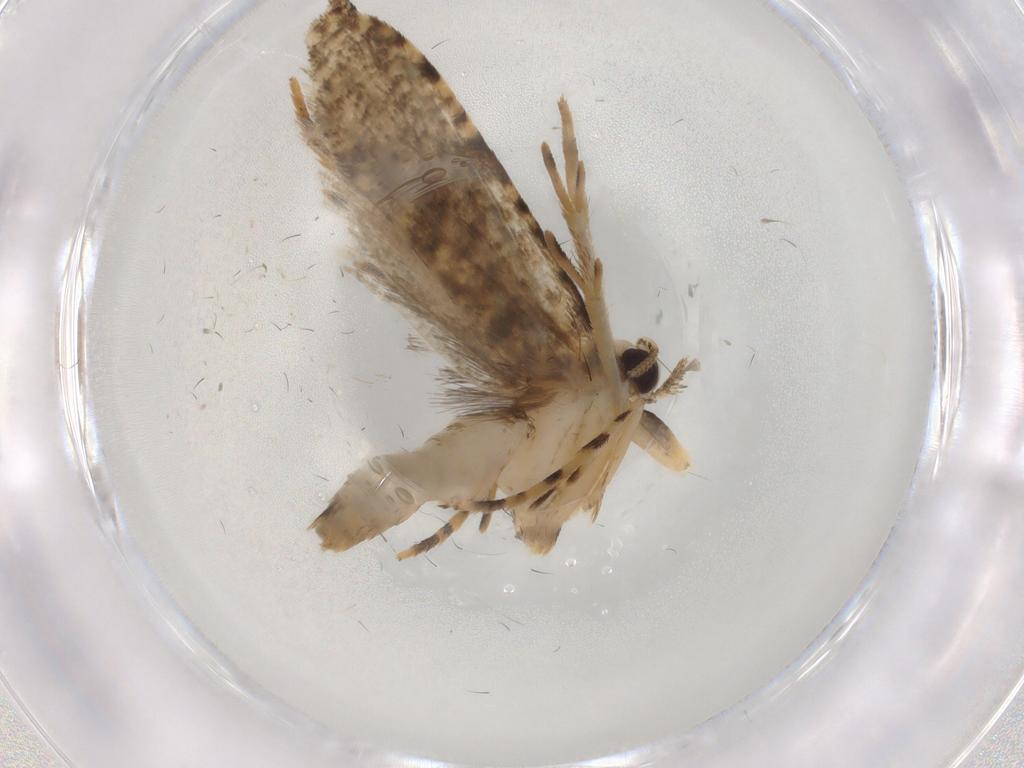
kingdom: Animalia
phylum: Arthropoda
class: Insecta
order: Lepidoptera
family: Tineidae
